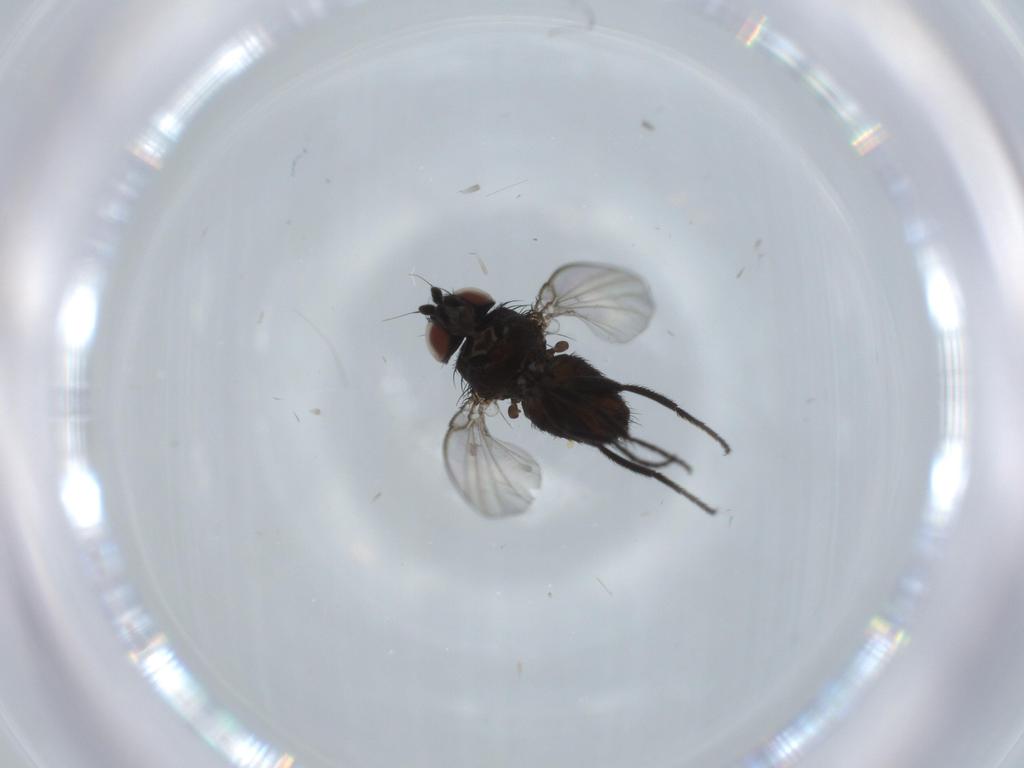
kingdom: Animalia
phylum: Arthropoda
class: Insecta
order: Diptera
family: Milichiidae
